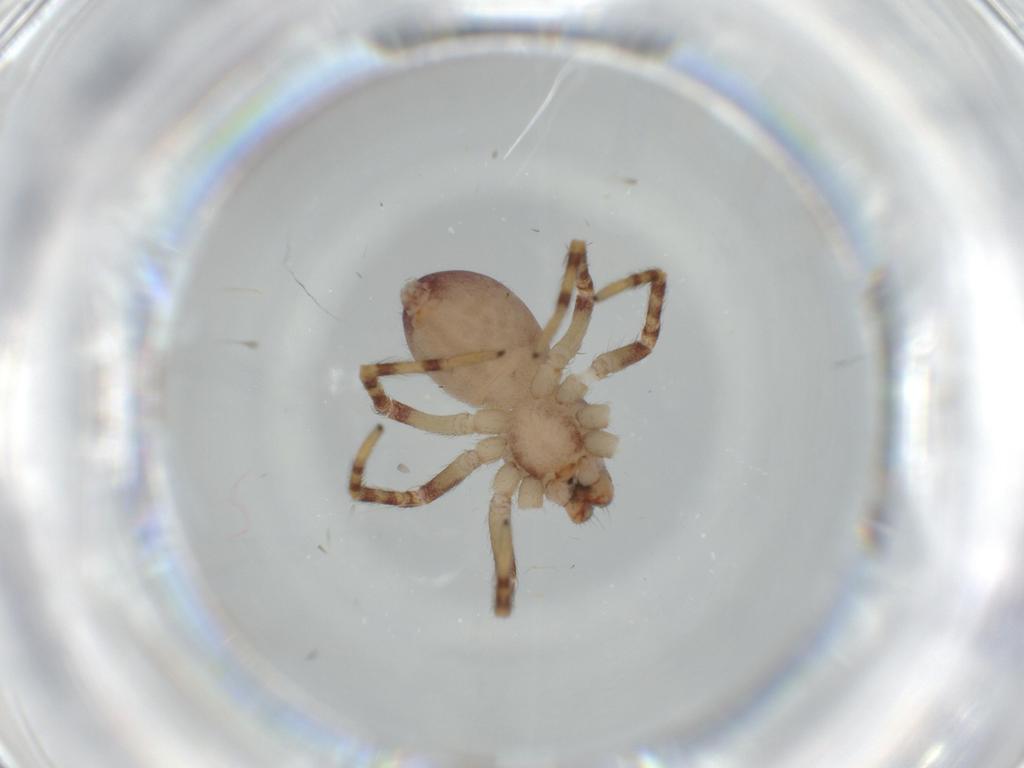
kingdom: Animalia
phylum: Arthropoda
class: Arachnida
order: Araneae
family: Corinnidae
